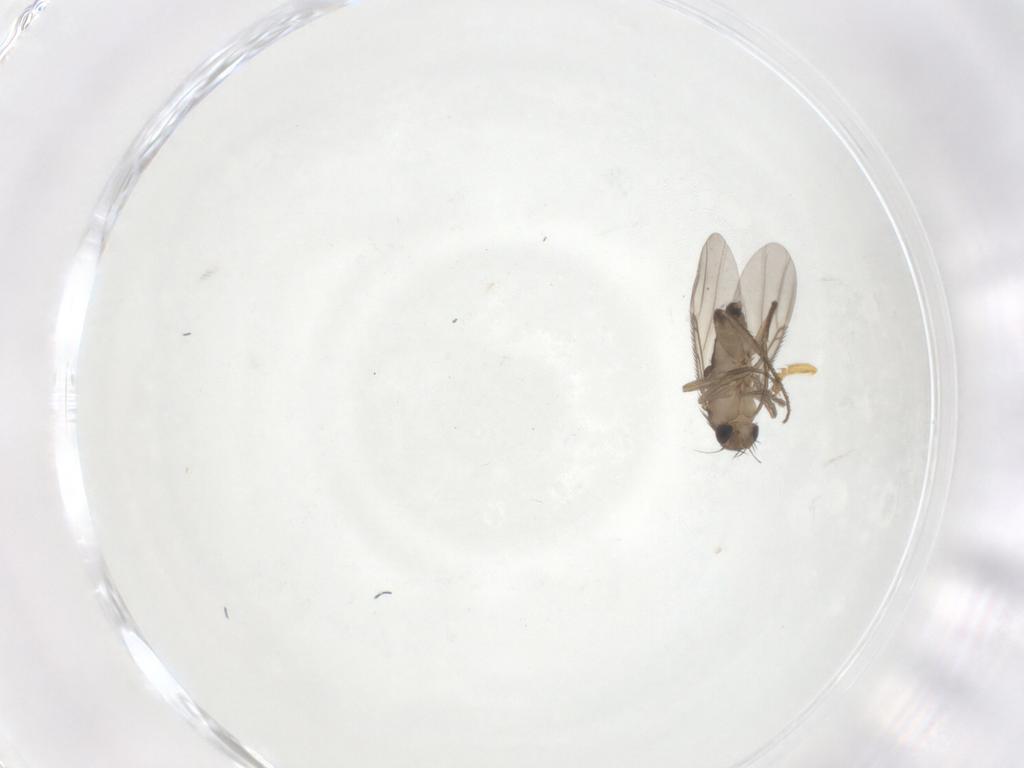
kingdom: Animalia
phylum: Arthropoda
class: Insecta
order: Diptera
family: Phoridae
